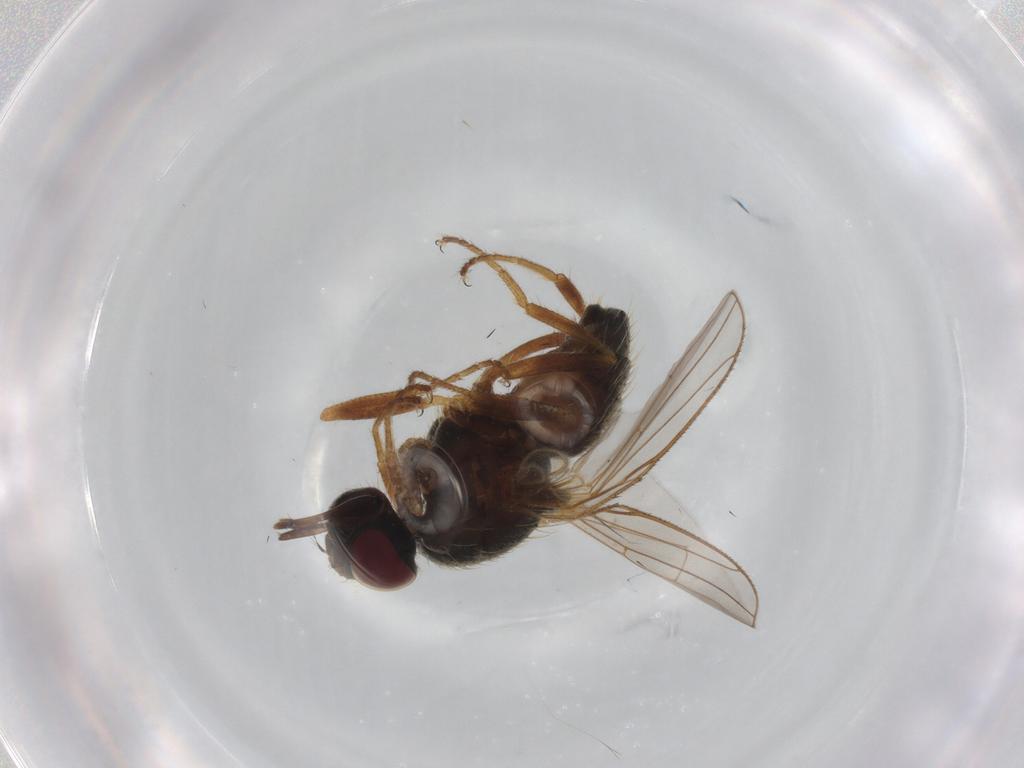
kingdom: Animalia
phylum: Arthropoda
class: Insecta
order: Diptera
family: Muscidae
